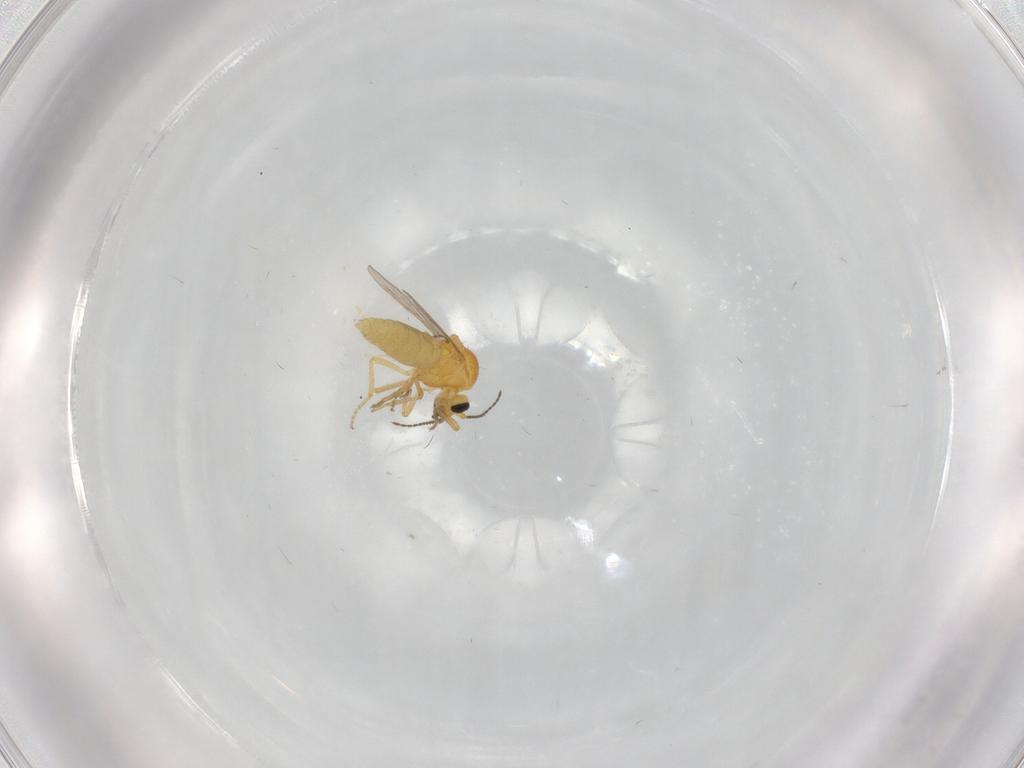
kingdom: Animalia
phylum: Arthropoda
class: Insecta
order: Diptera
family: Ceratopogonidae
